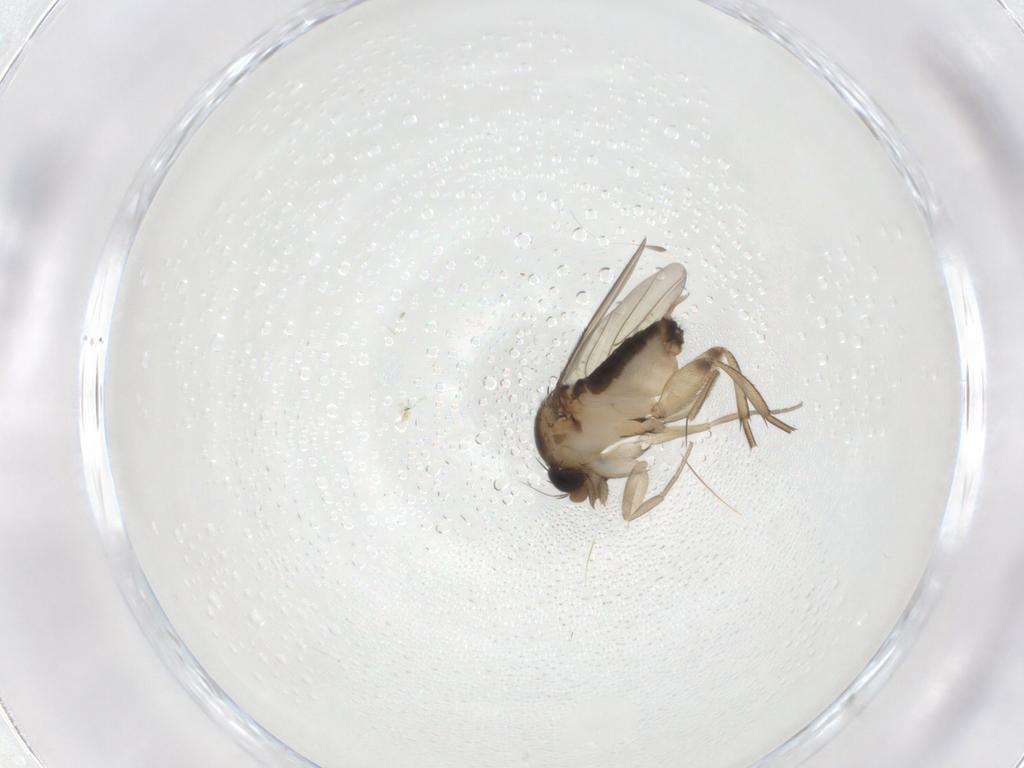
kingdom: Animalia
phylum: Arthropoda
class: Insecta
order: Diptera
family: Phoridae
